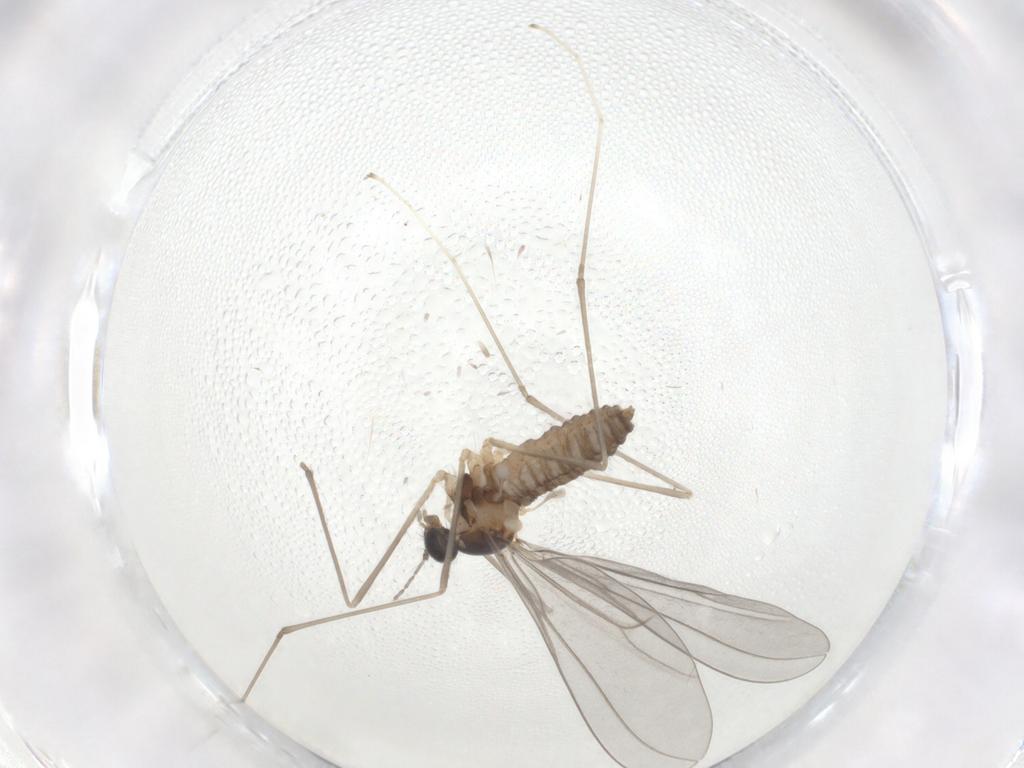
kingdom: Animalia
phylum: Arthropoda
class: Insecta
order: Diptera
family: Cecidomyiidae
